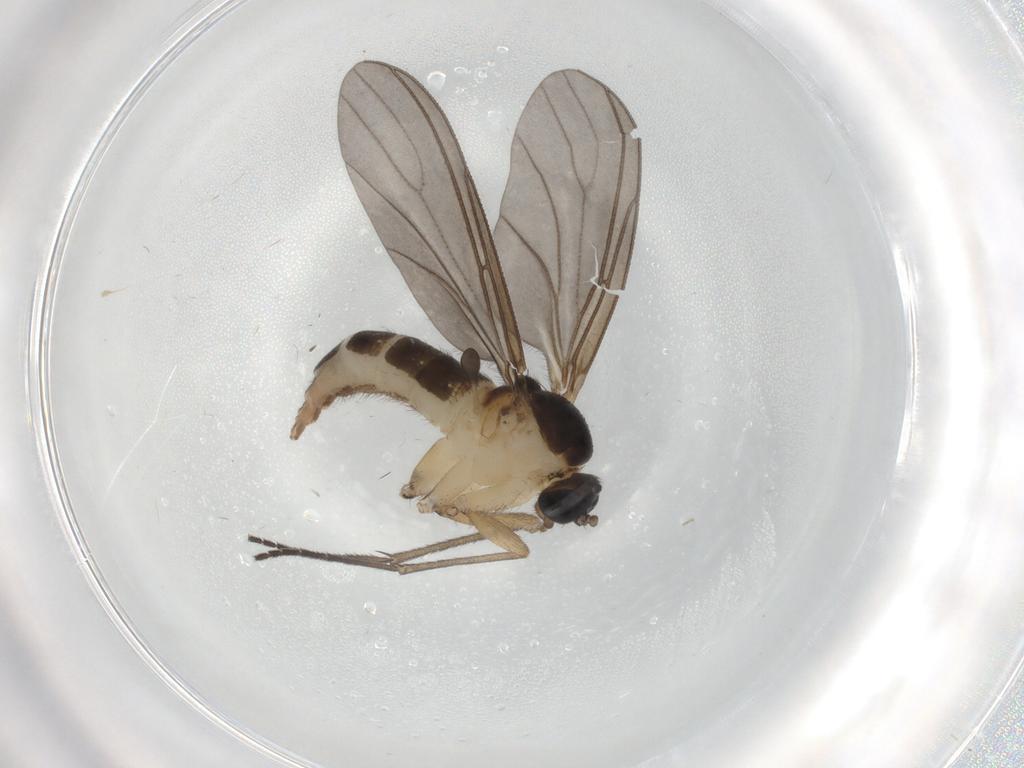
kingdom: Animalia
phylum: Arthropoda
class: Insecta
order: Diptera
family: Sciaridae
